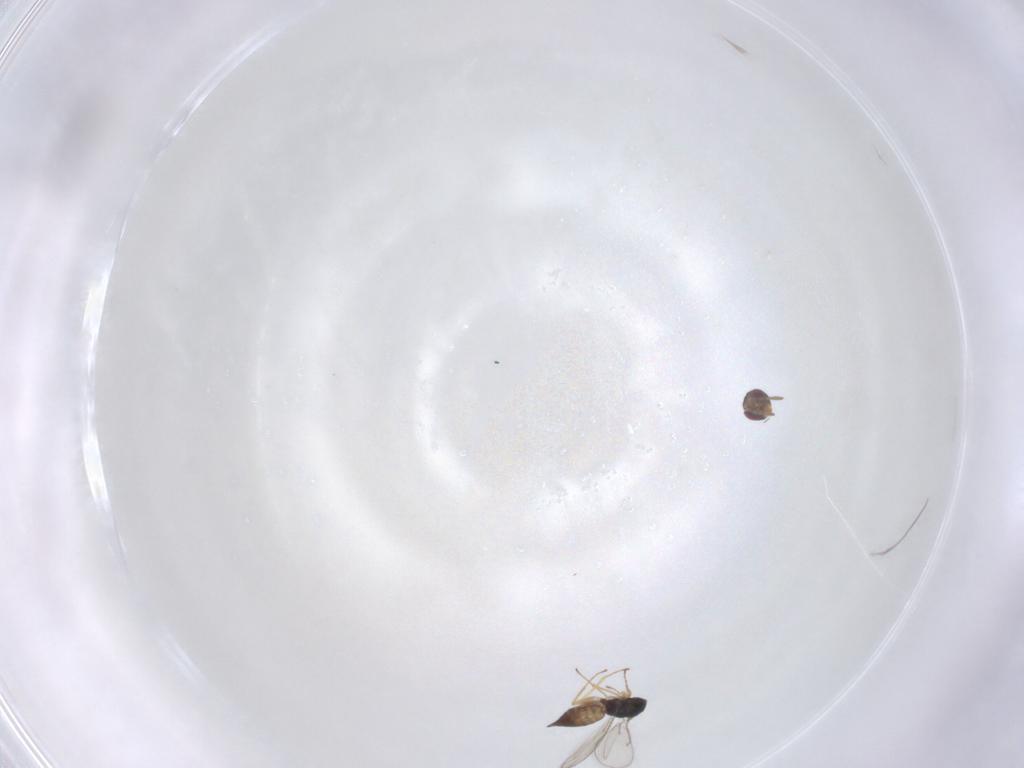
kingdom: Animalia
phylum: Arthropoda
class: Insecta
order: Hymenoptera
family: Eulophidae
